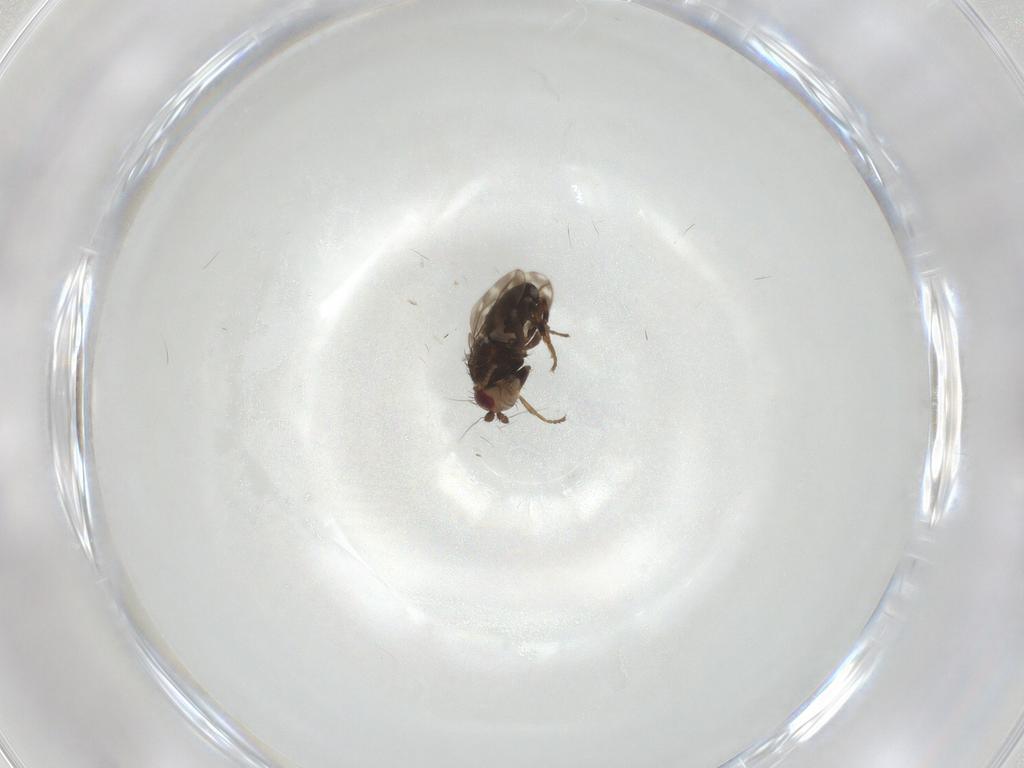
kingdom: Animalia
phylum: Arthropoda
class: Insecta
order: Diptera
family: Sphaeroceridae
